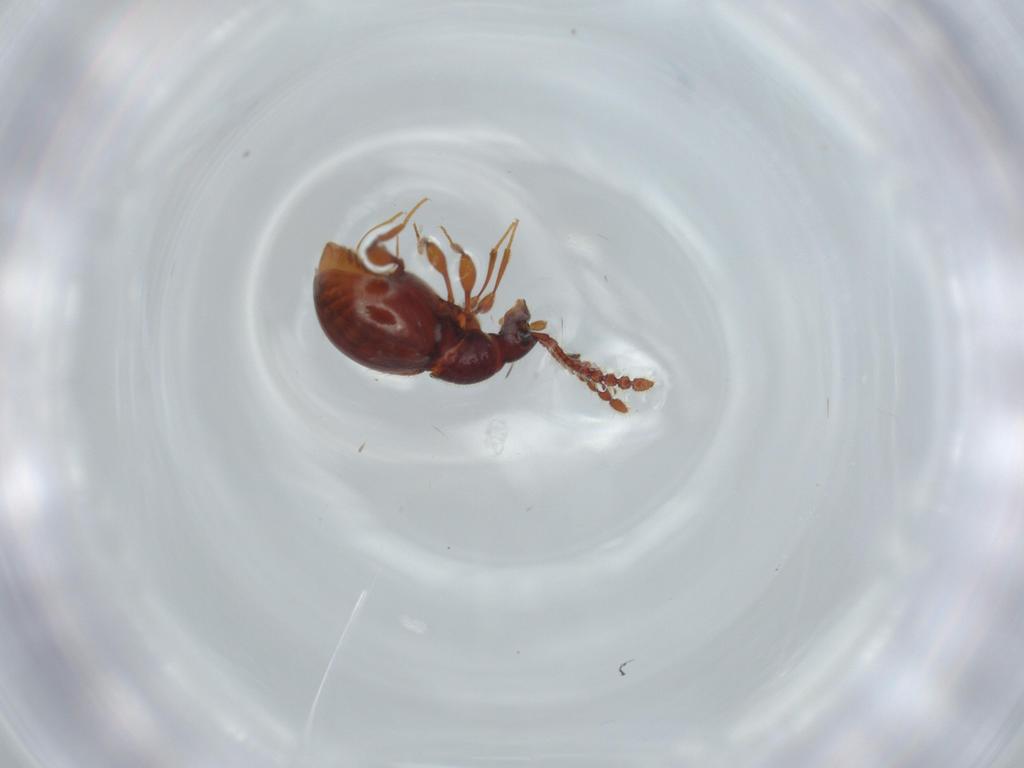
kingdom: Animalia
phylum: Arthropoda
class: Insecta
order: Coleoptera
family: Staphylinidae
